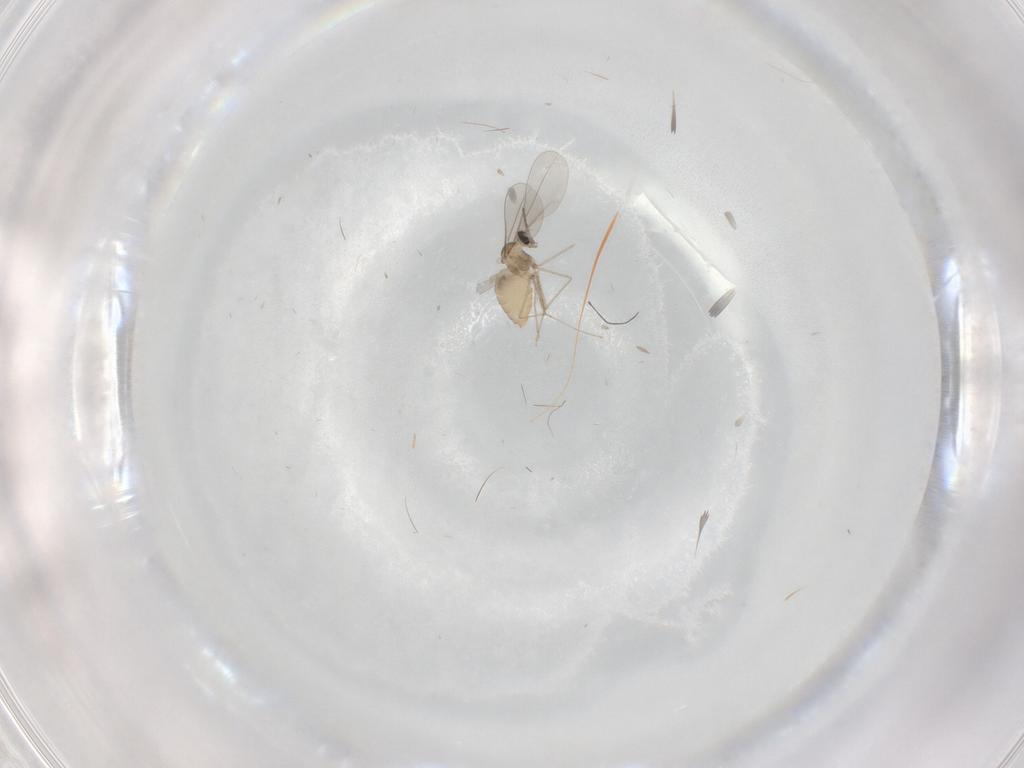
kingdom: Animalia
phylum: Arthropoda
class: Insecta
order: Diptera
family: Cecidomyiidae
